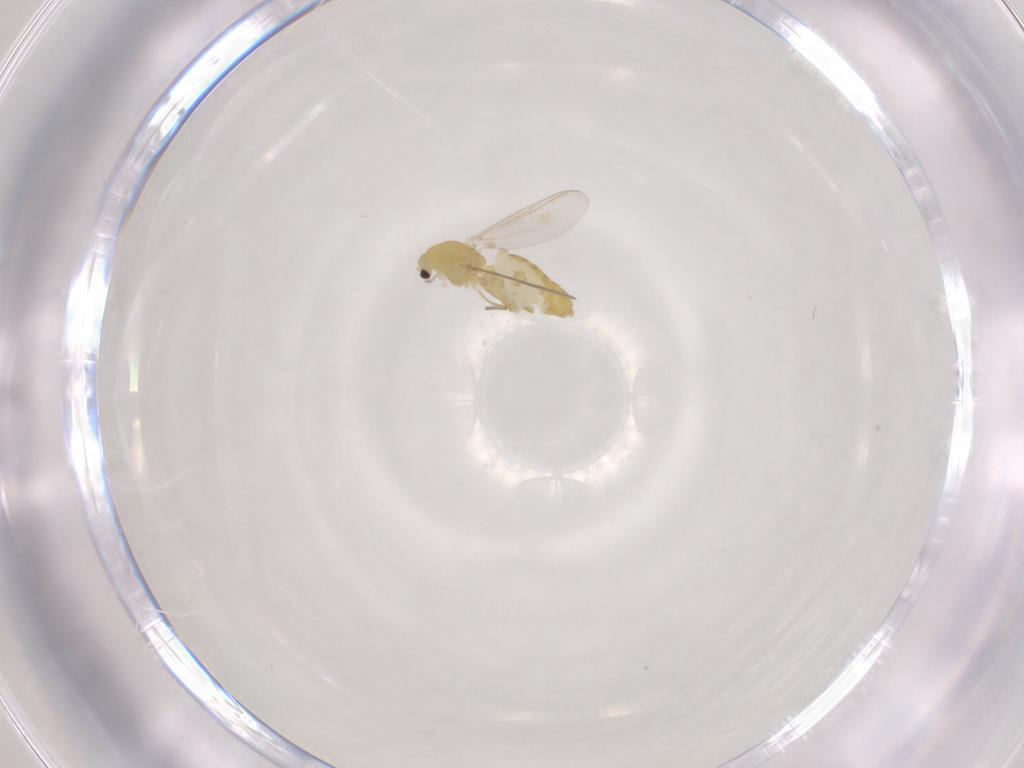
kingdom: Animalia
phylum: Arthropoda
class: Insecta
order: Diptera
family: Chironomidae
